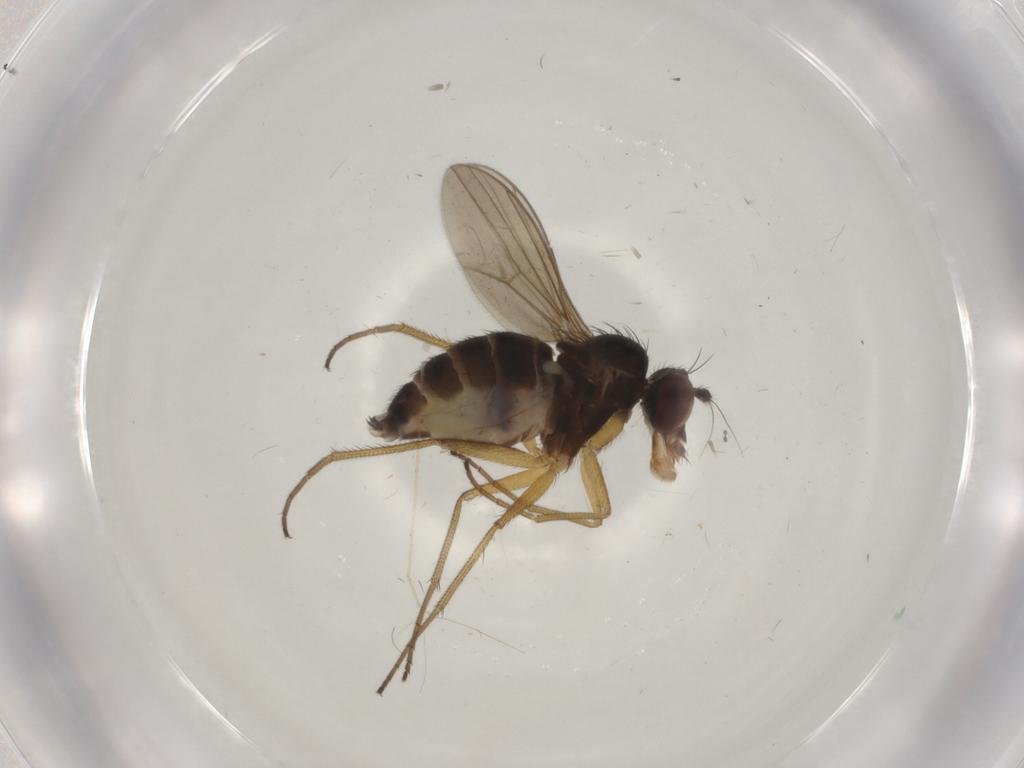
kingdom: Animalia
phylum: Arthropoda
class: Insecta
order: Diptera
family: Dolichopodidae
